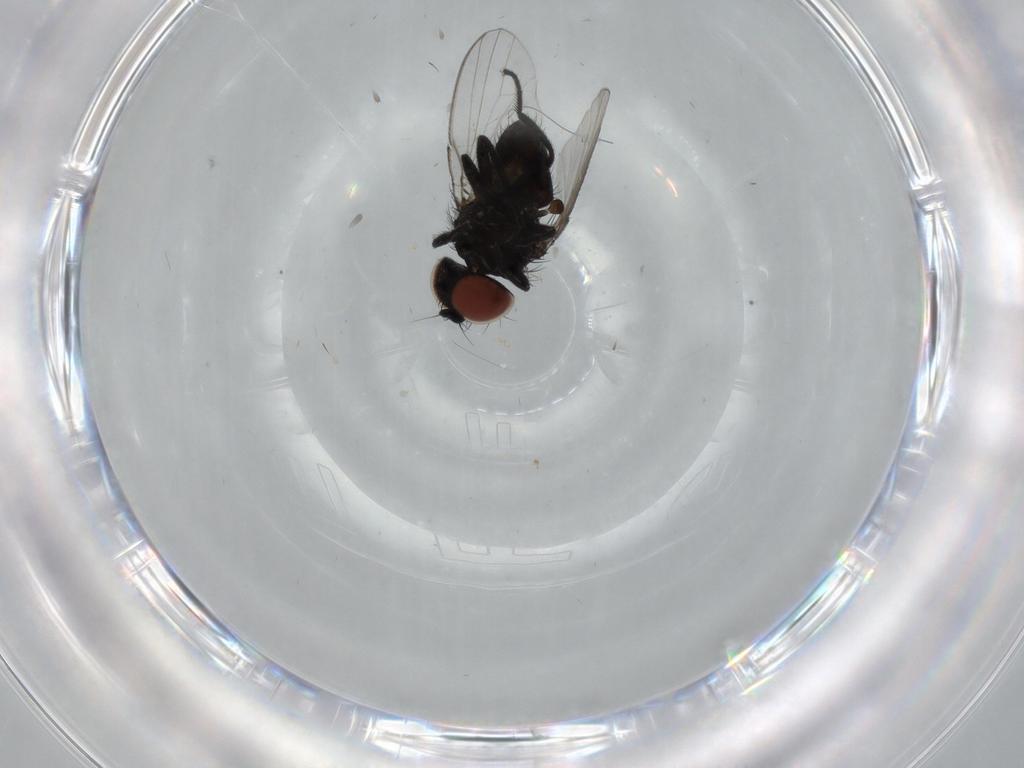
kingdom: Animalia
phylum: Arthropoda
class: Insecta
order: Diptera
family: Milichiidae
